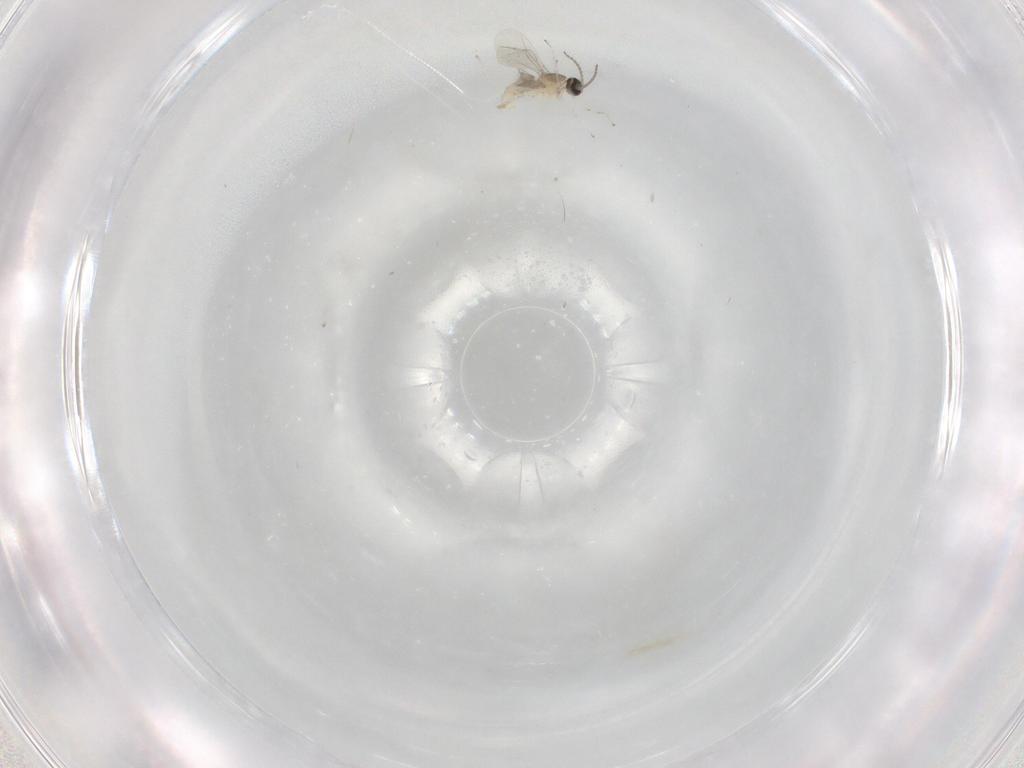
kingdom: Animalia
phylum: Arthropoda
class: Insecta
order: Diptera
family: Cecidomyiidae
